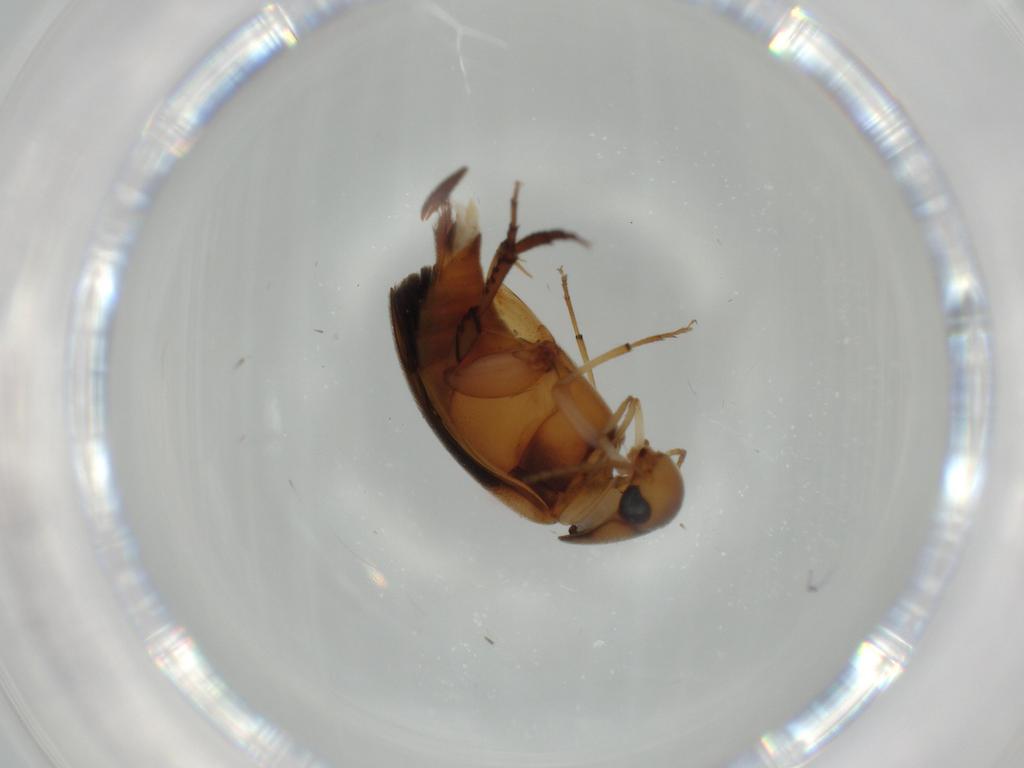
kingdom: Animalia
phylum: Arthropoda
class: Insecta
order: Coleoptera
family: Mordellidae
